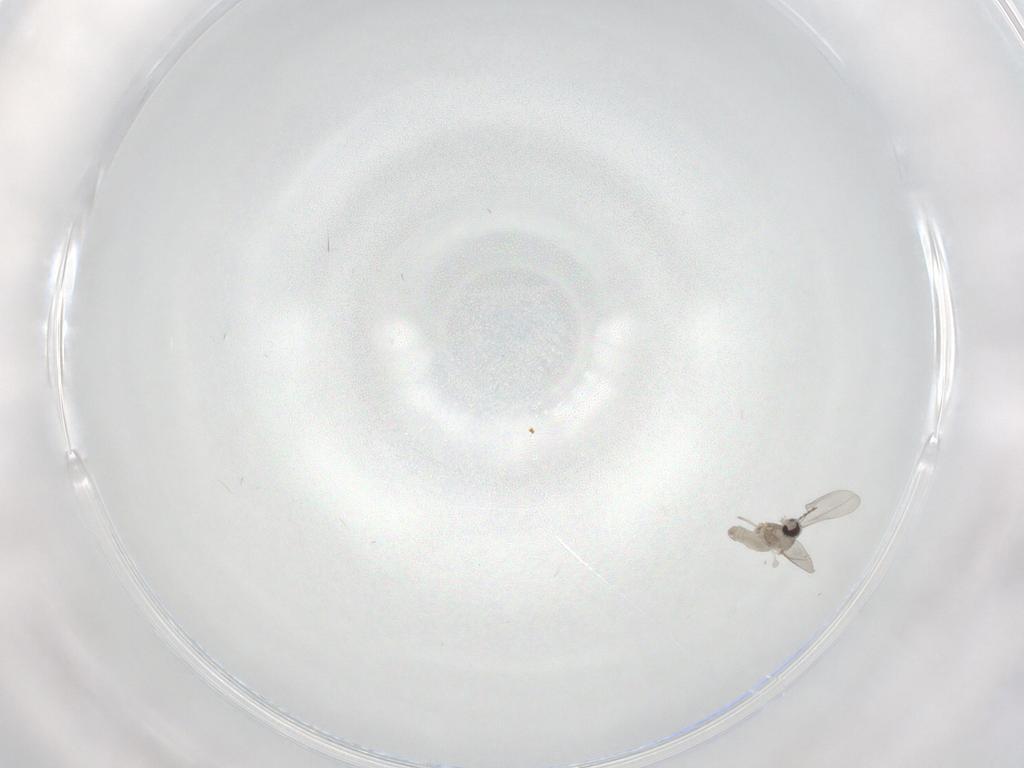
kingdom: Animalia
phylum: Arthropoda
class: Insecta
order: Diptera
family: Cecidomyiidae
